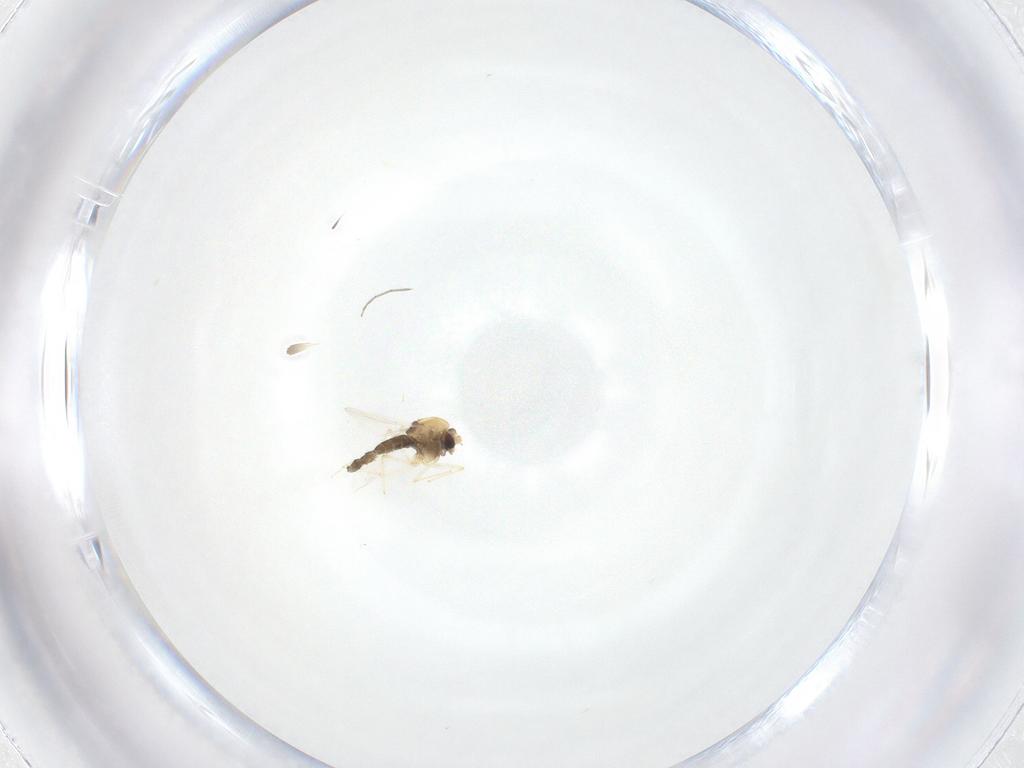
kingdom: Animalia
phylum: Arthropoda
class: Insecta
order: Diptera
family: Chironomidae
